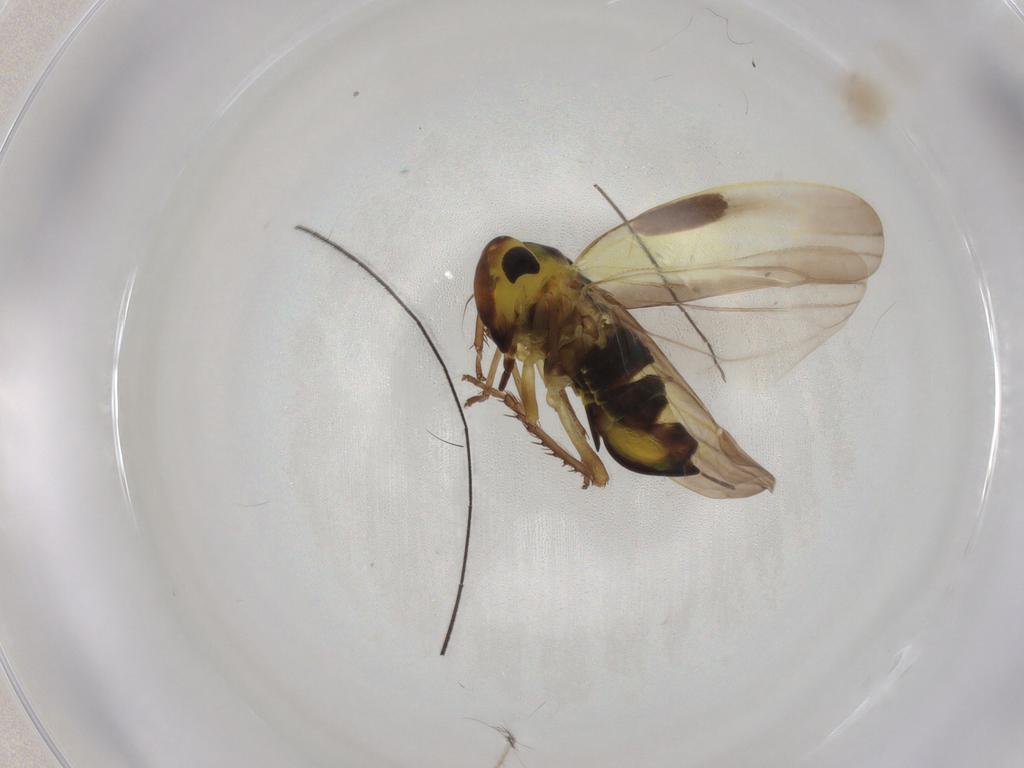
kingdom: Animalia
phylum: Arthropoda
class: Insecta
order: Hemiptera
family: Cicadellidae
